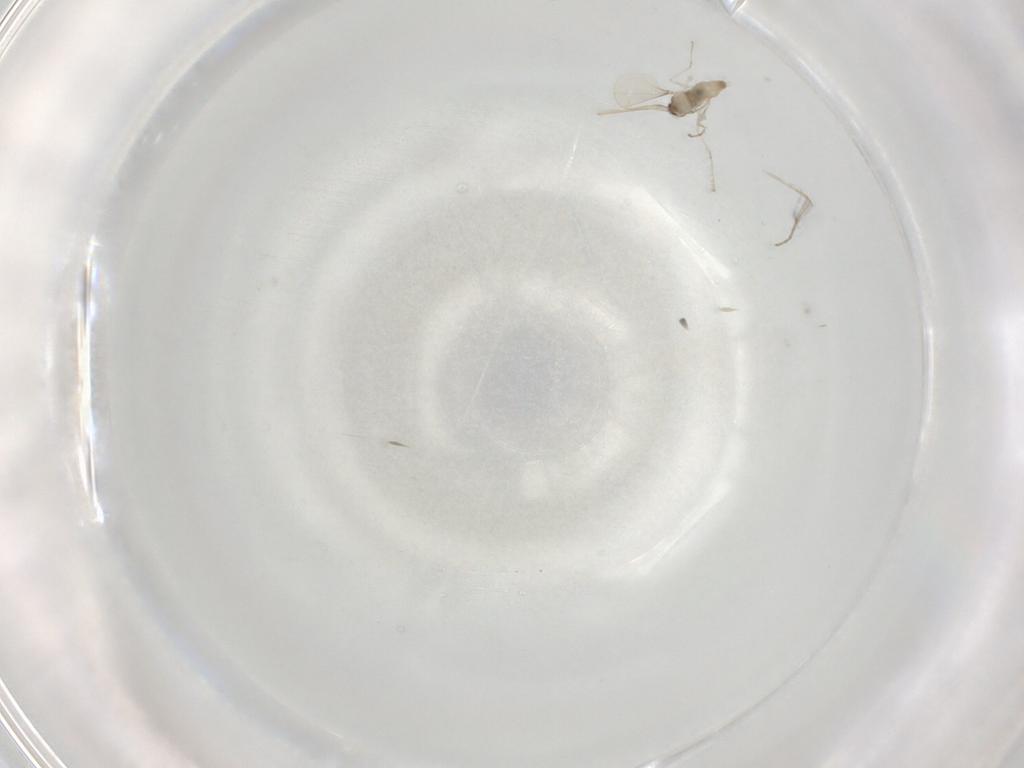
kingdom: Animalia
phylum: Arthropoda
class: Insecta
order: Diptera
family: Cecidomyiidae
